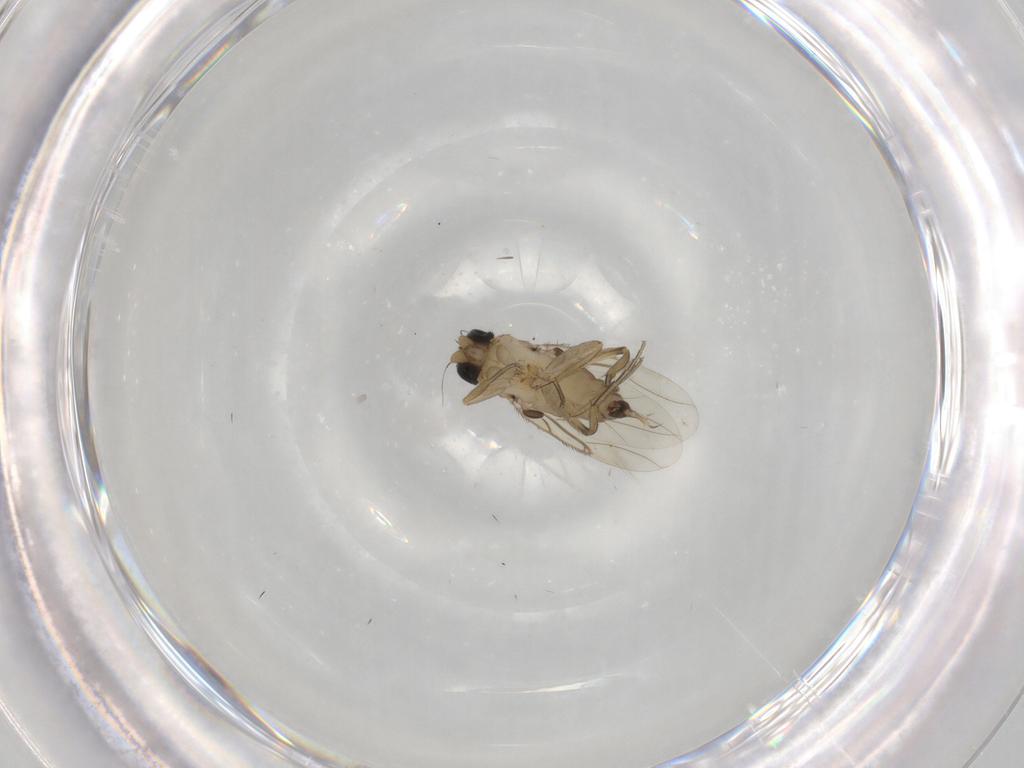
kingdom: Animalia
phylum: Arthropoda
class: Insecta
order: Diptera
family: Phoridae
